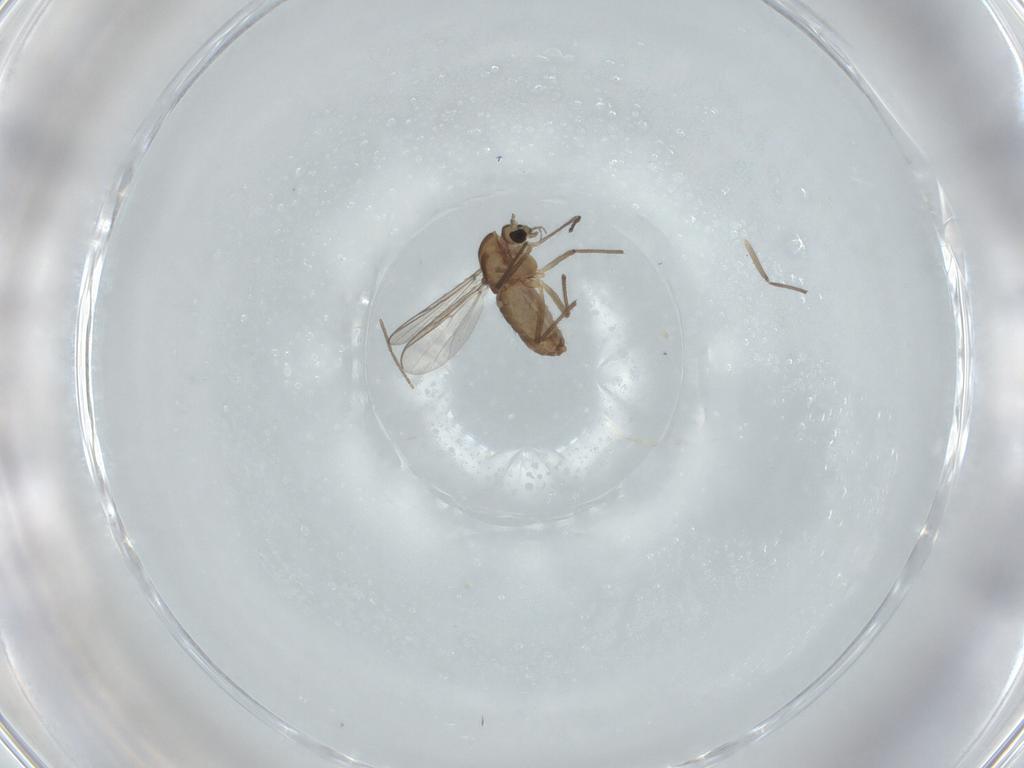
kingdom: Animalia
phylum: Arthropoda
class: Insecta
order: Diptera
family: Chironomidae
